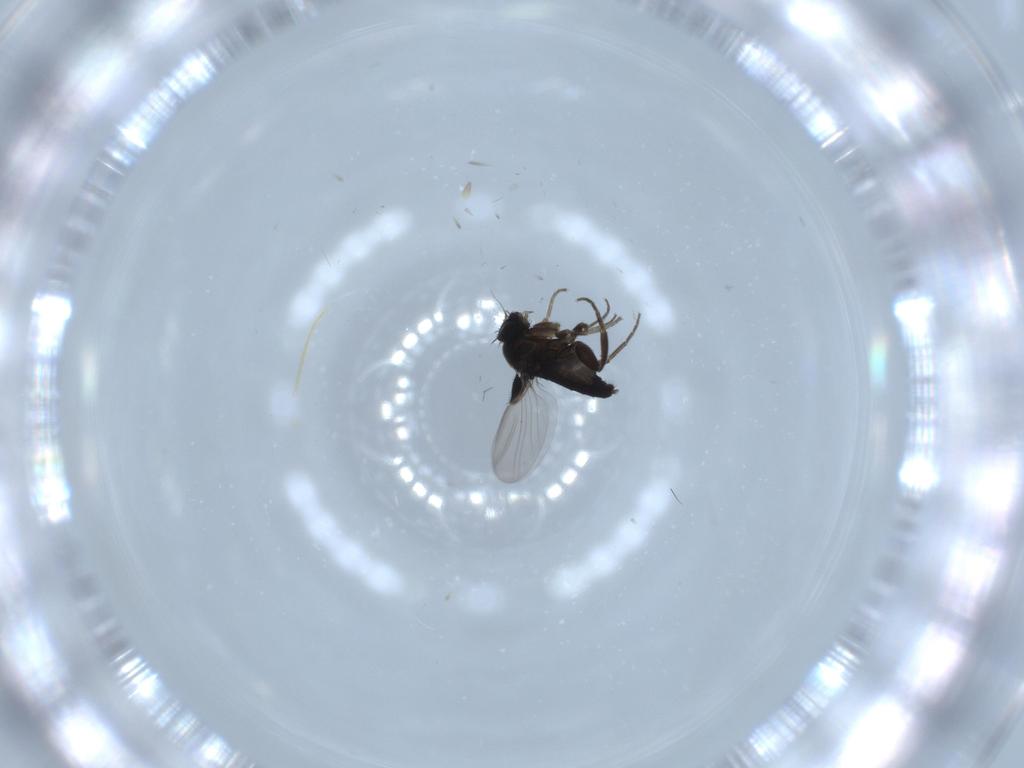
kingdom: Animalia
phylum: Arthropoda
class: Insecta
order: Diptera
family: Phoridae
